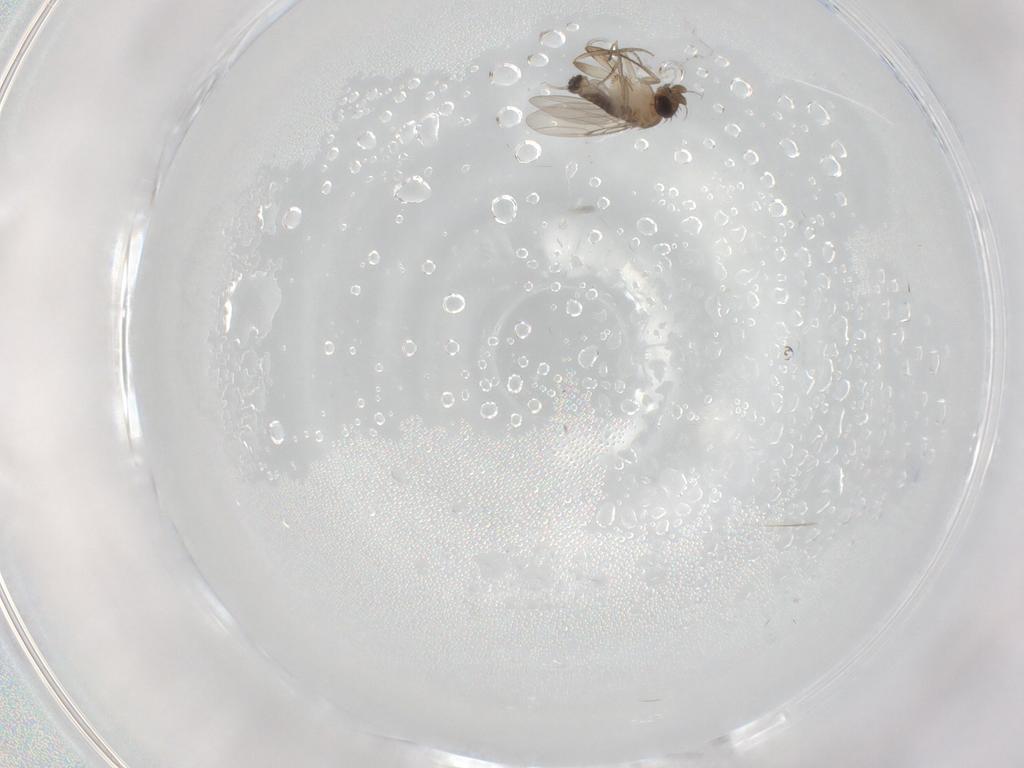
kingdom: Animalia
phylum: Arthropoda
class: Insecta
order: Diptera
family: Phoridae
